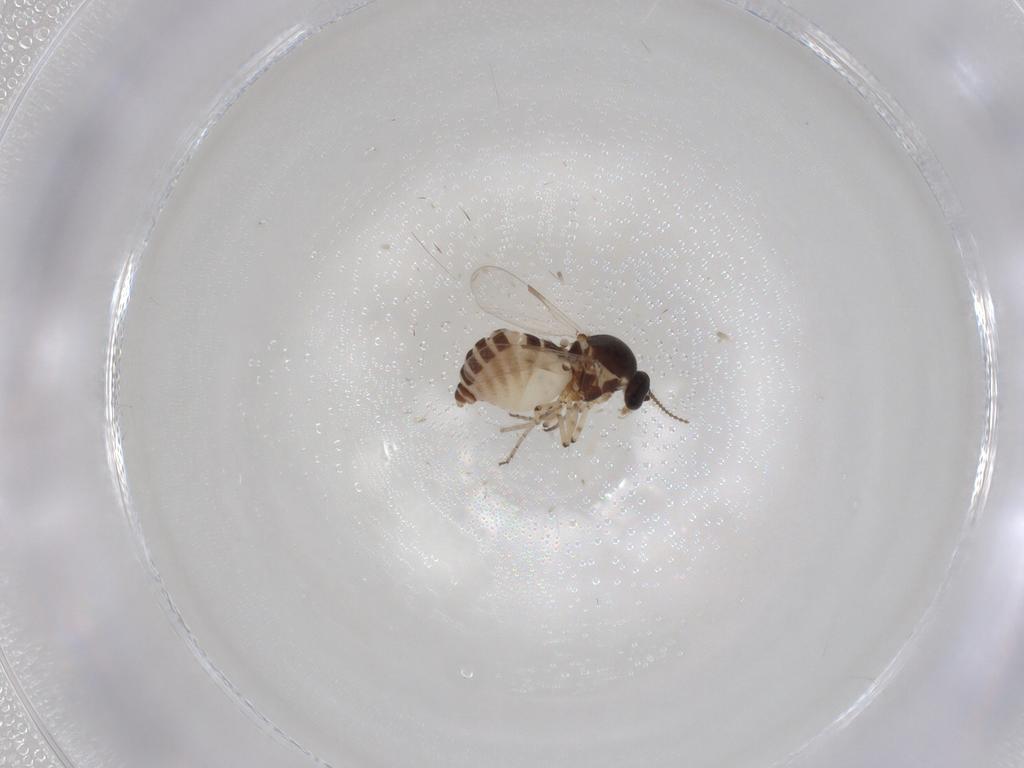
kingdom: Animalia
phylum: Arthropoda
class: Insecta
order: Diptera
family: Ceratopogonidae
